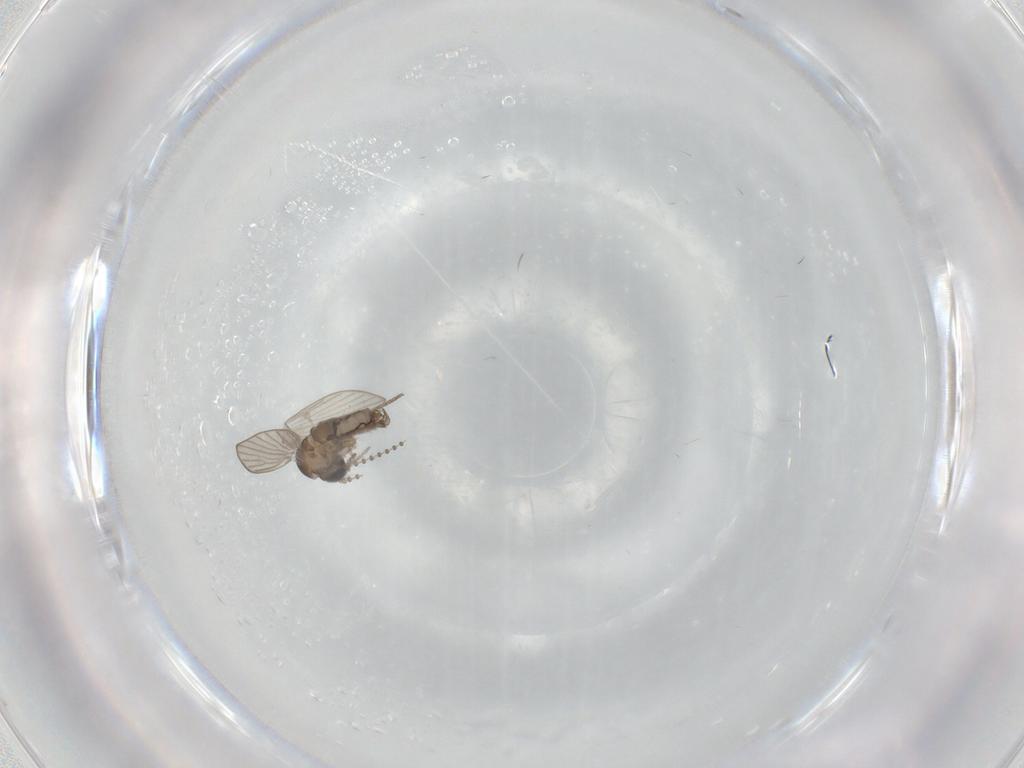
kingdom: Animalia
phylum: Arthropoda
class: Insecta
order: Diptera
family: Psychodidae
